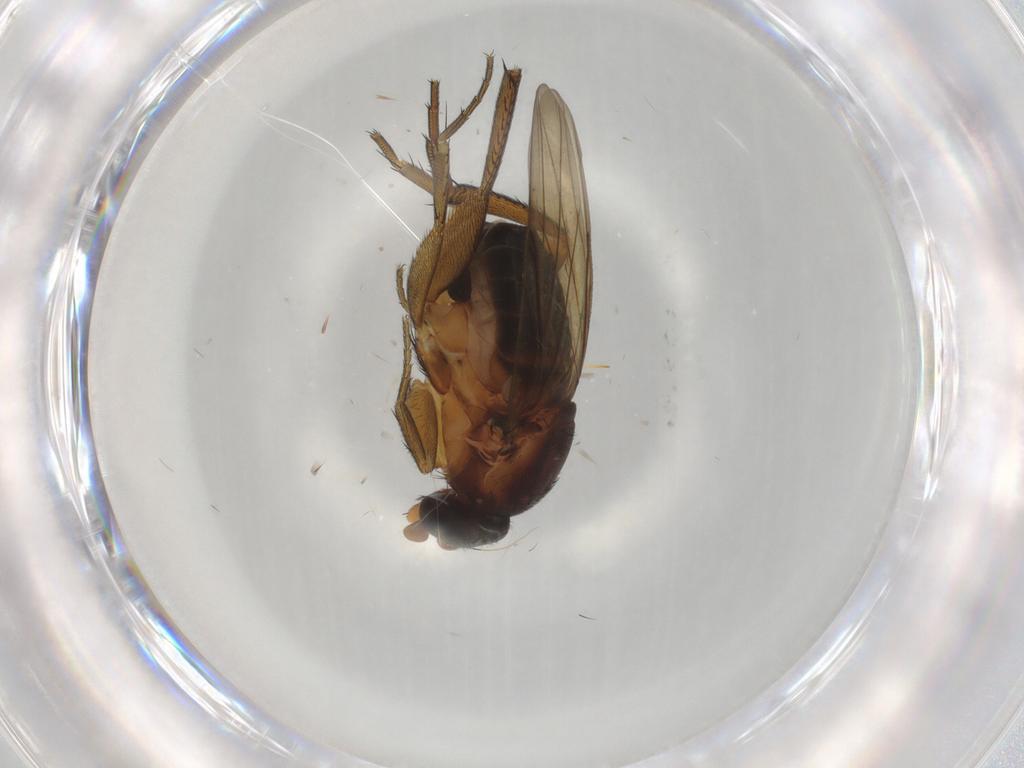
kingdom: Animalia
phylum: Arthropoda
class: Insecta
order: Diptera
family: Phoridae
